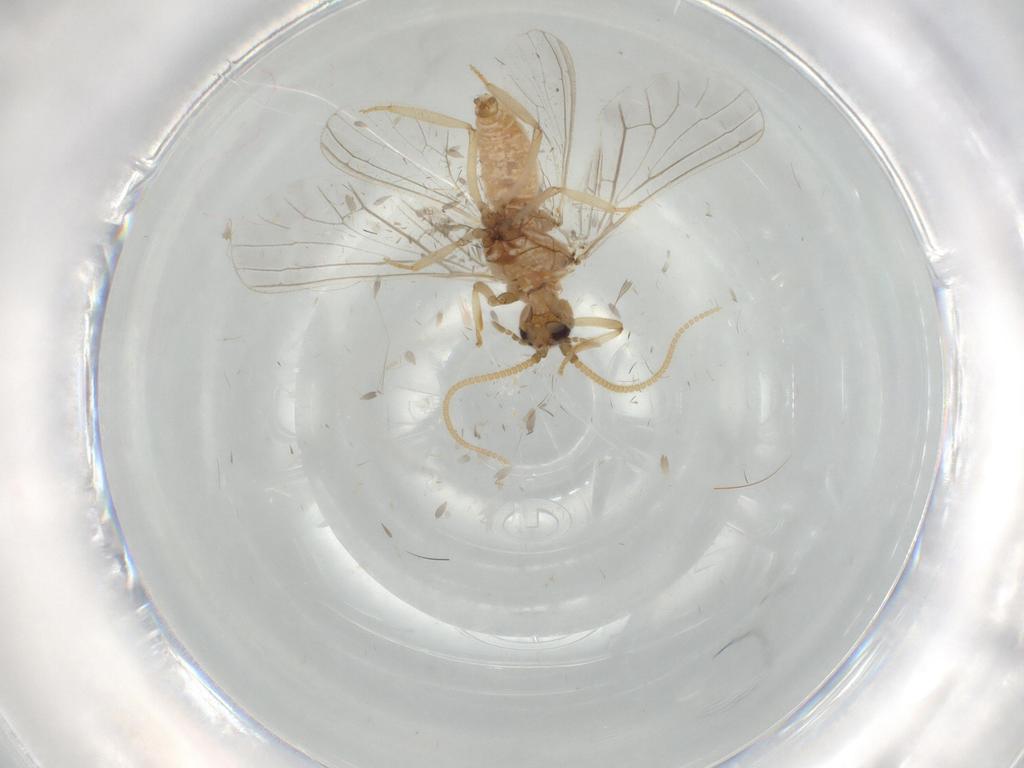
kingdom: Animalia
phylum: Arthropoda
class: Insecta
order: Neuroptera
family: Coniopterygidae
